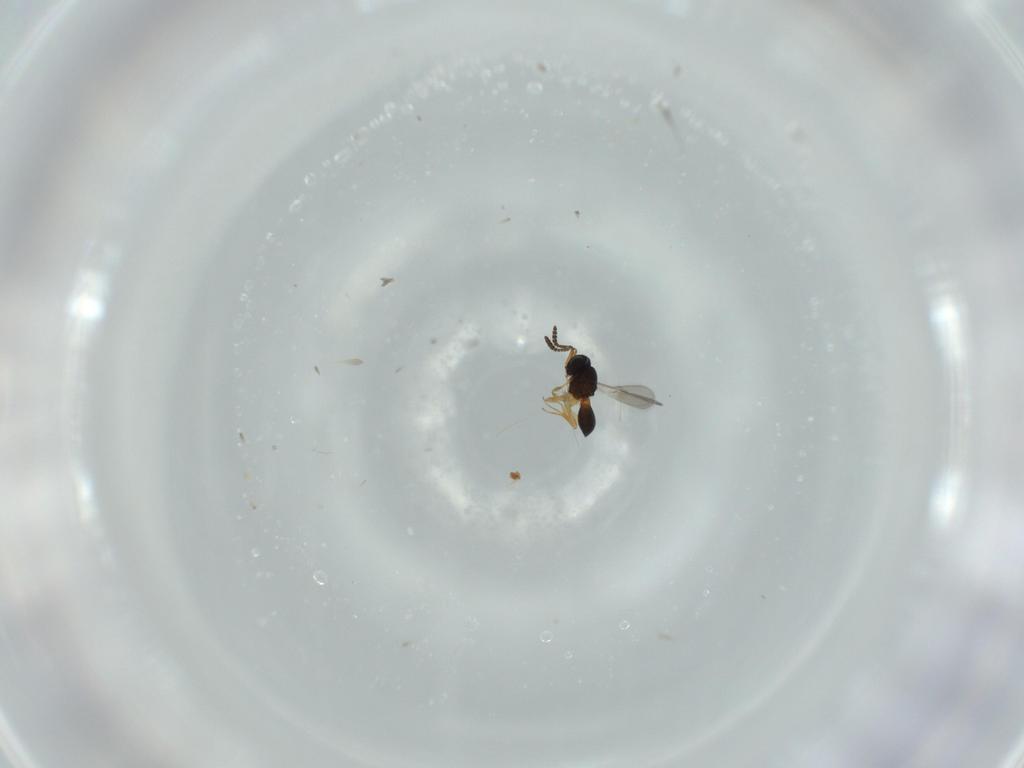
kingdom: Animalia
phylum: Arthropoda
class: Insecta
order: Hymenoptera
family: Scelionidae
